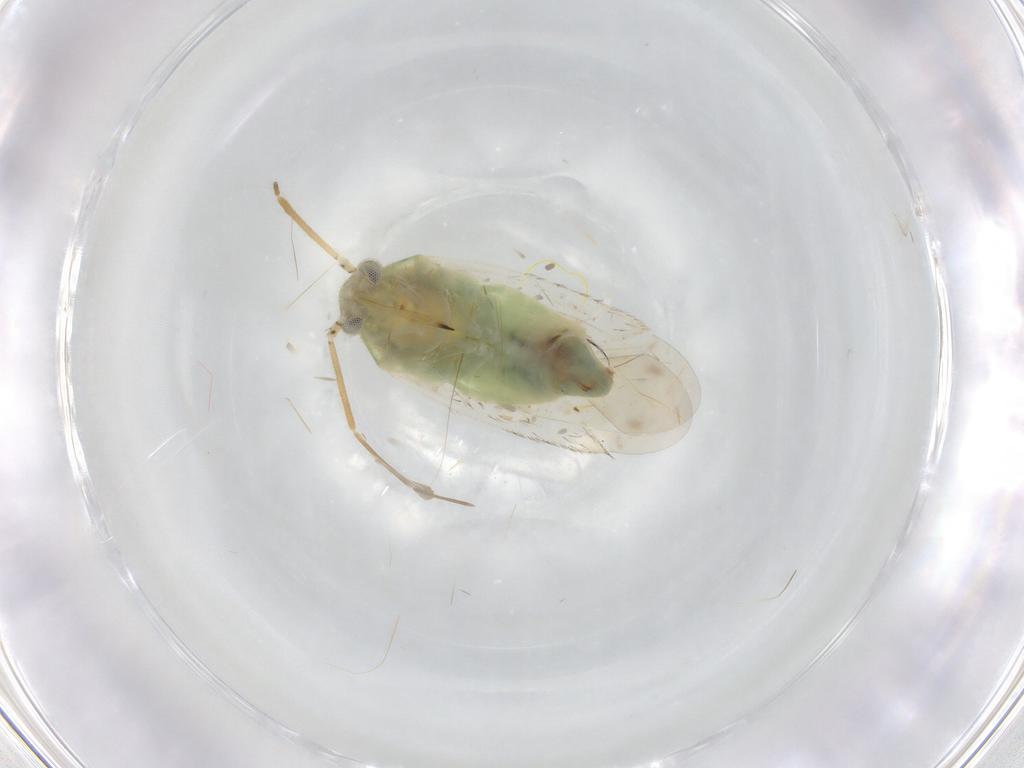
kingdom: Animalia
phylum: Arthropoda
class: Insecta
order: Hemiptera
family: Miridae
